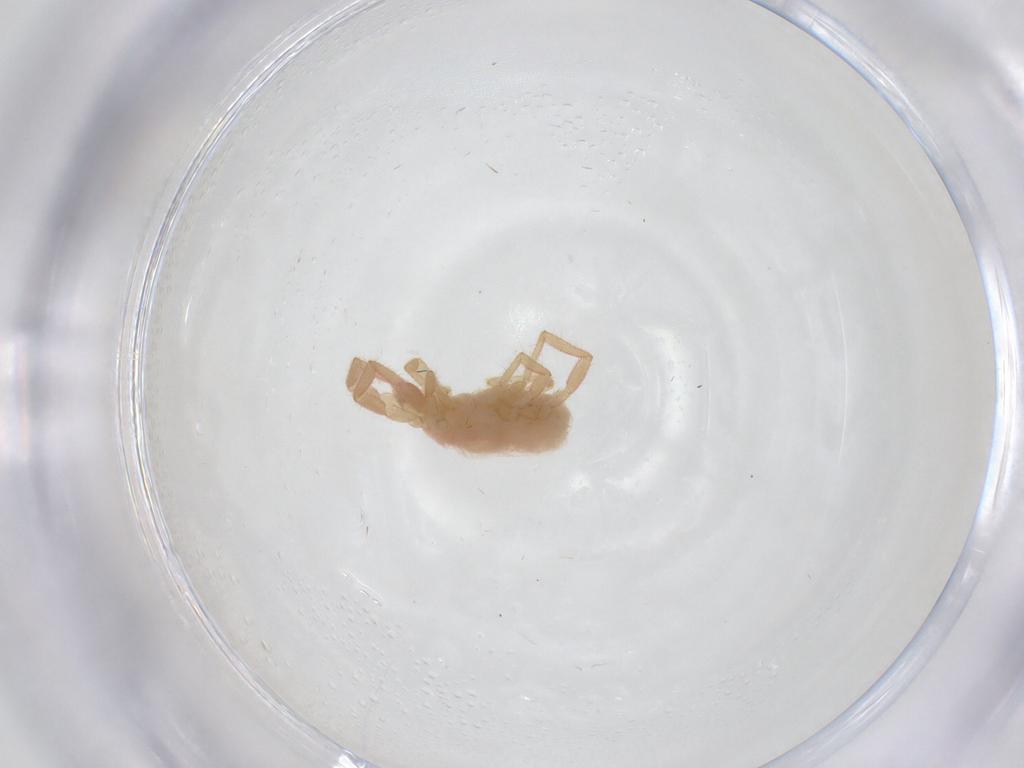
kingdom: Animalia
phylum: Arthropoda
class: Arachnida
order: Trombidiformes
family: Erythraeidae
